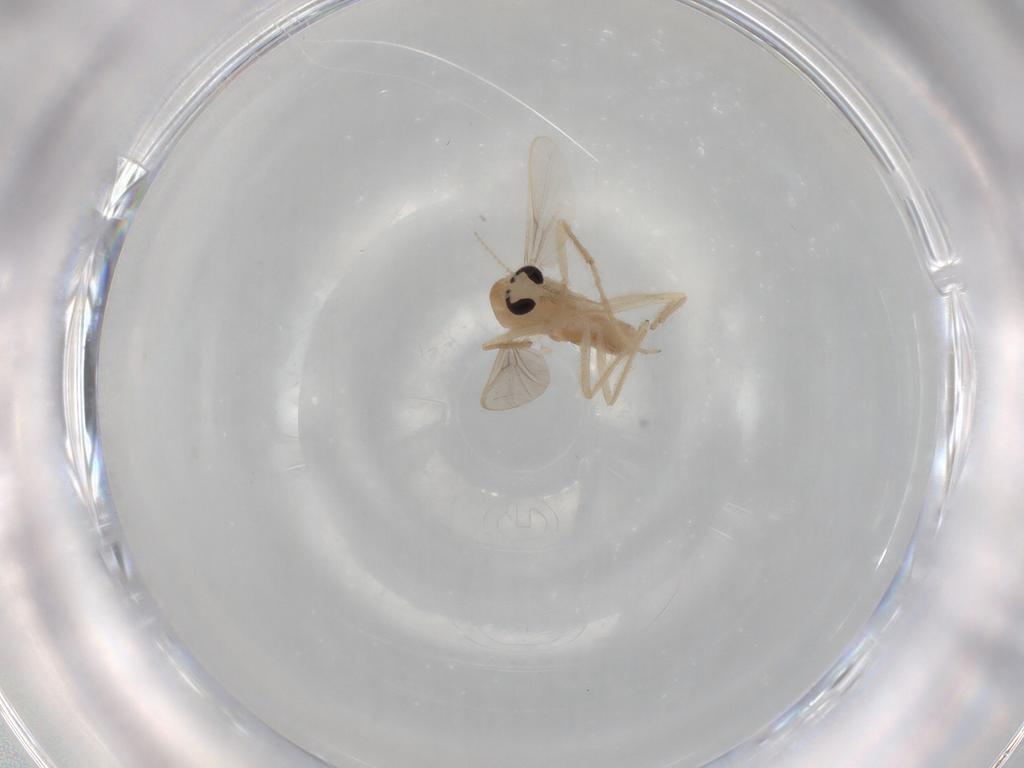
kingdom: Animalia
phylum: Arthropoda
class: Insecta
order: Diptera
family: Chironomidae
